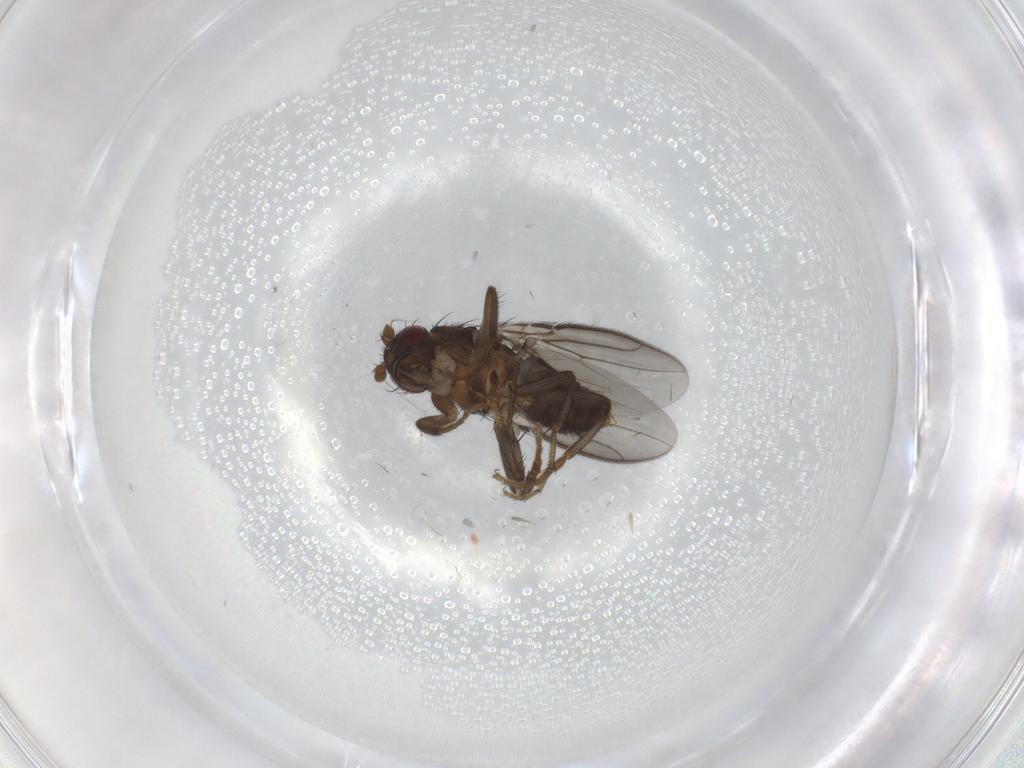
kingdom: Animalia
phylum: Arthropoda
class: Insecta
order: Diptera
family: Sphaeroceridae
